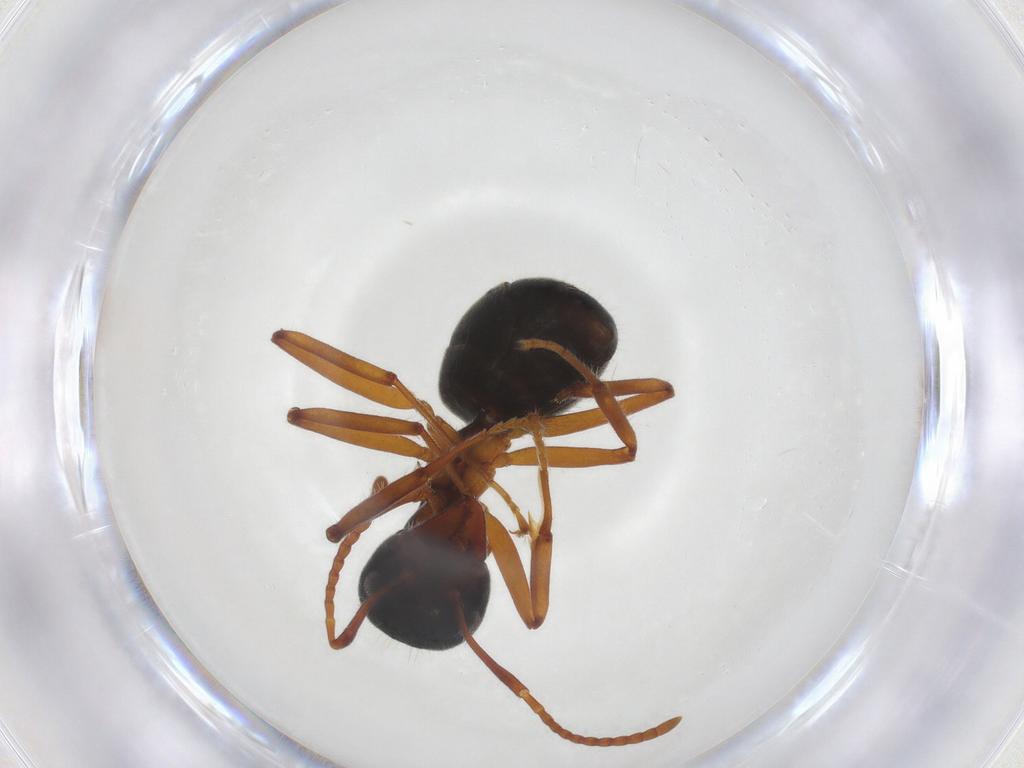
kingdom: Animalia
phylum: Arthropoda
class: Insecta
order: Hymenoptera
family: Formicidae
